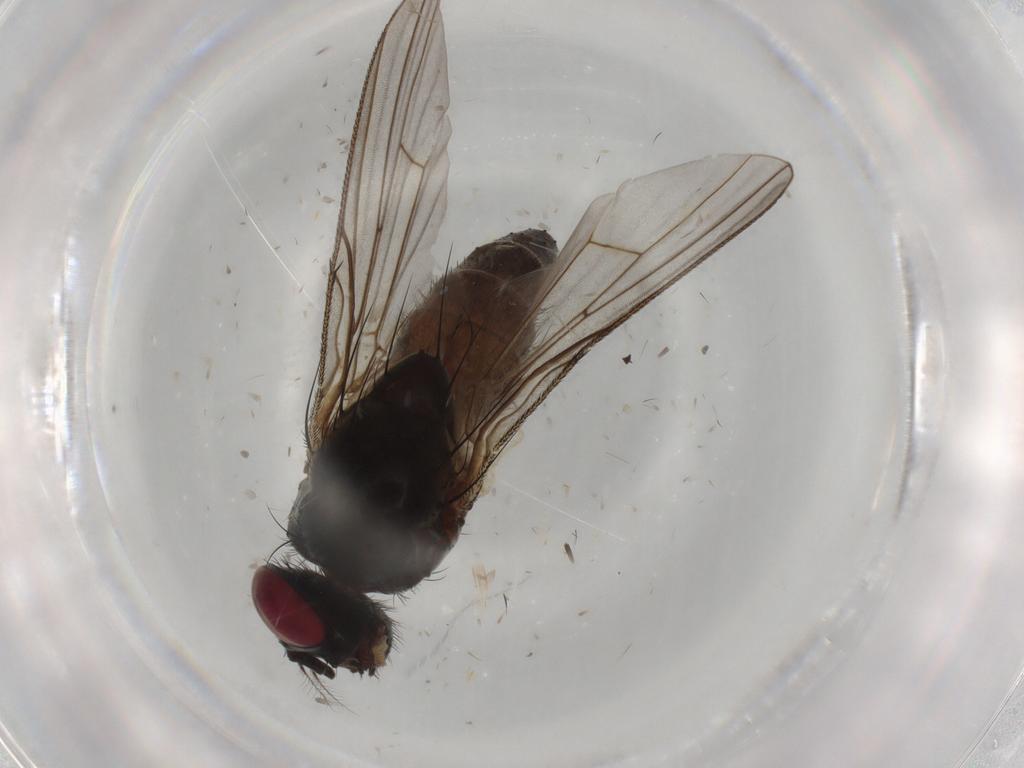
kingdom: Animalia
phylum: Arthropoda
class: Insecta
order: Diptera
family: Muscidae
